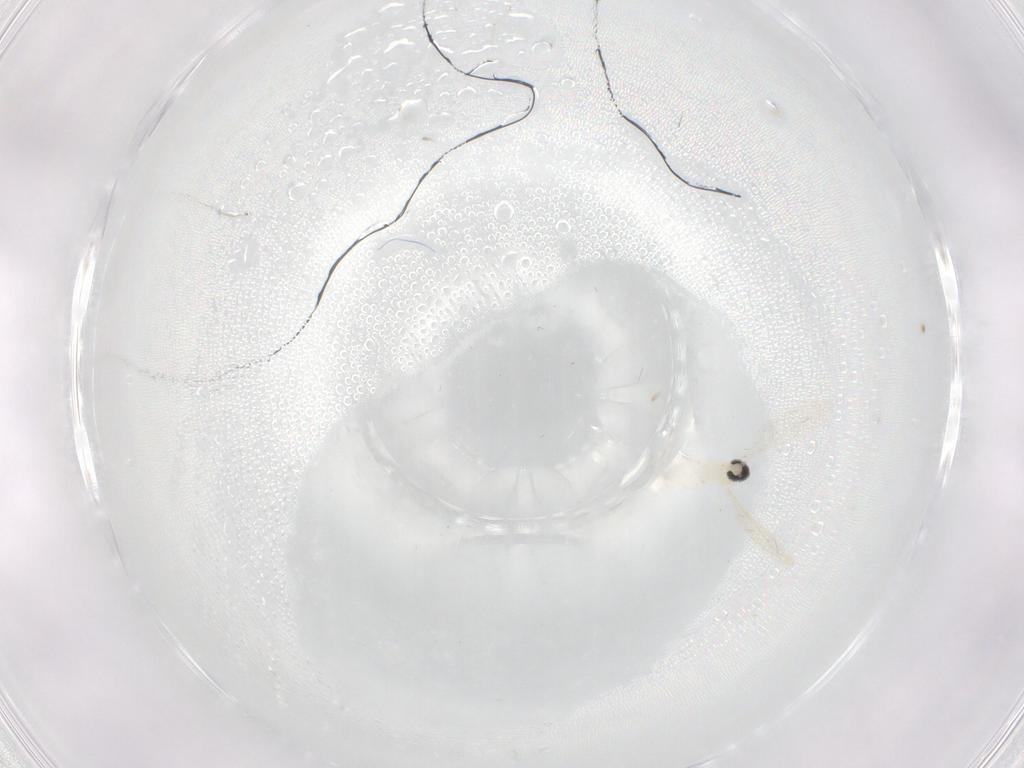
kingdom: Animalia
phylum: Arthropoda
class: Insecta
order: Diptera
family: Cecidomyiidae
